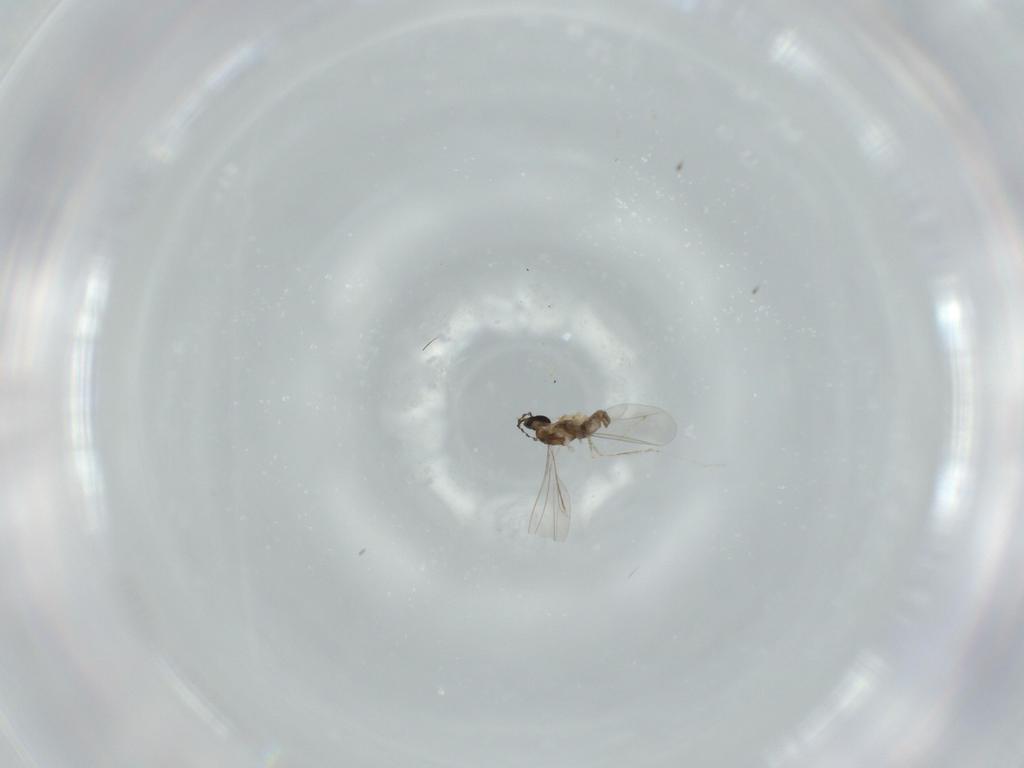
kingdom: Animalia
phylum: Arthropoda
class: Insecta
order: Diptera
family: Cecidomyiidae
